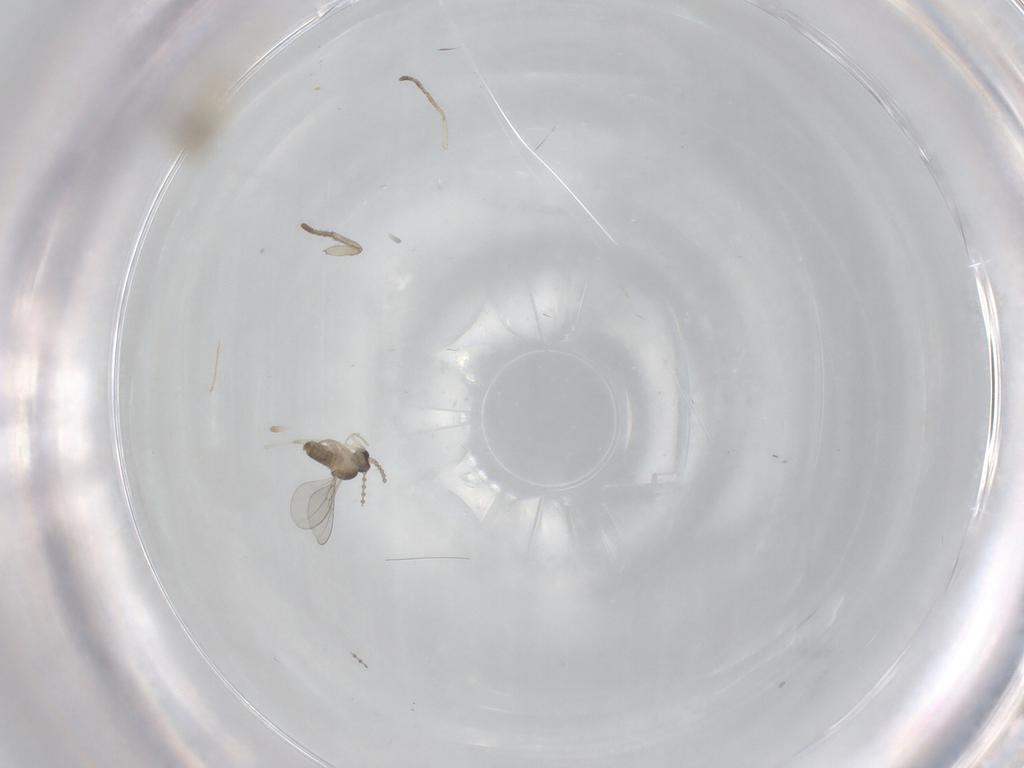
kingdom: Animalia
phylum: Arthropoda
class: Insecta
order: Diptera
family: Cecidomyiidae
